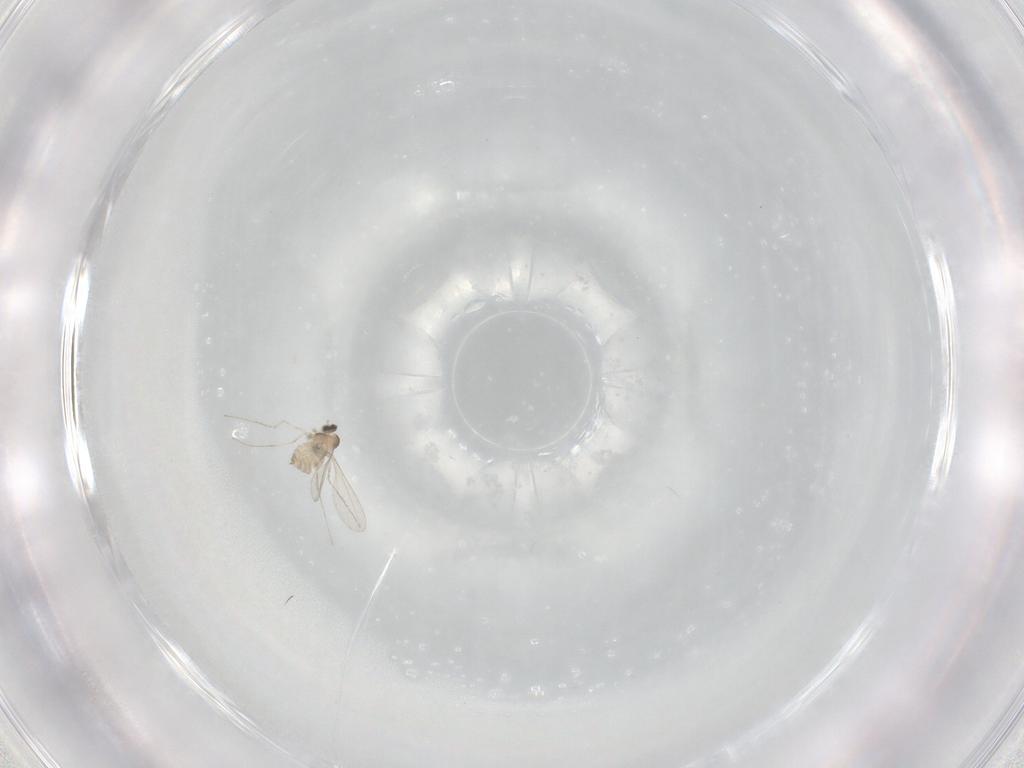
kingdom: Animalia
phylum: Arthropoda
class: Insecta
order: Diptera
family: Cecidomyiidae
